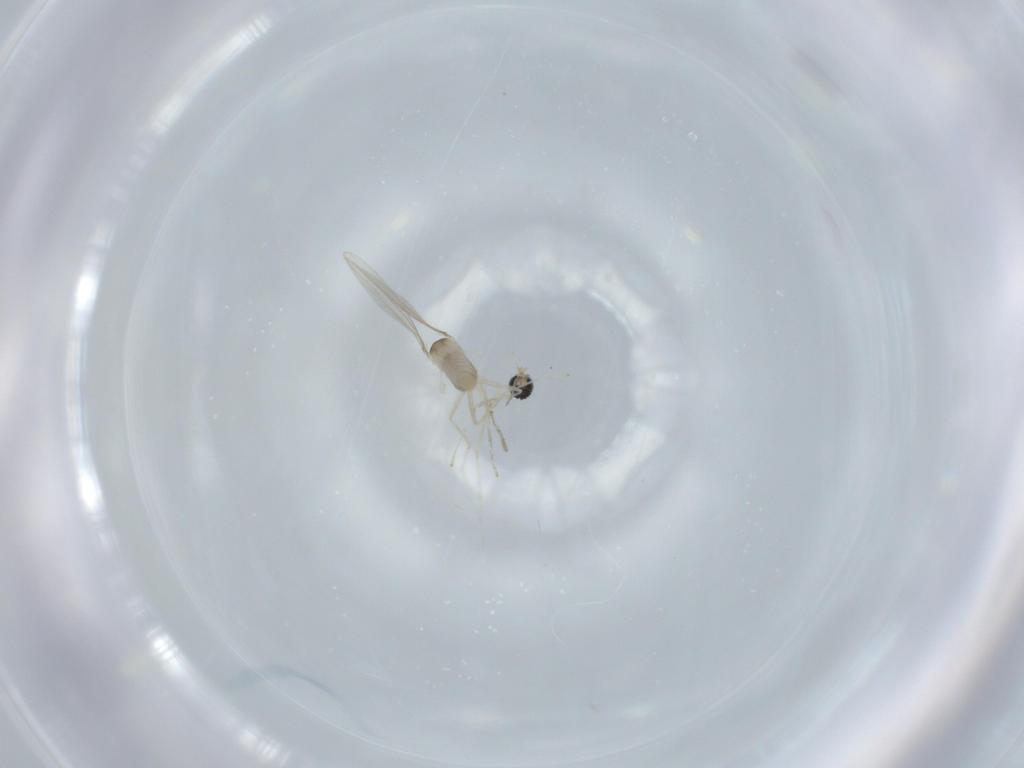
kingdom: Animalia
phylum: Arthropoda
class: Insecta
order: Diptera
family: Cecidomyiidae
